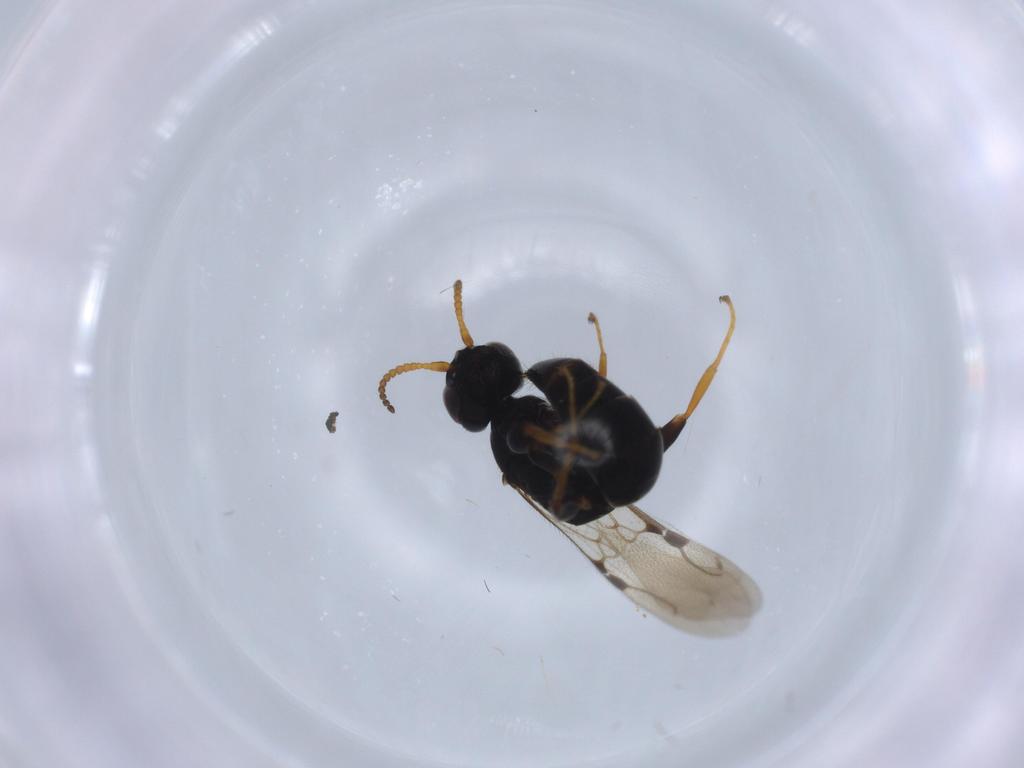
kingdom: Animalia
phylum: Arthropoda
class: Insecta
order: Hymenoptera
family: Bethylidae
